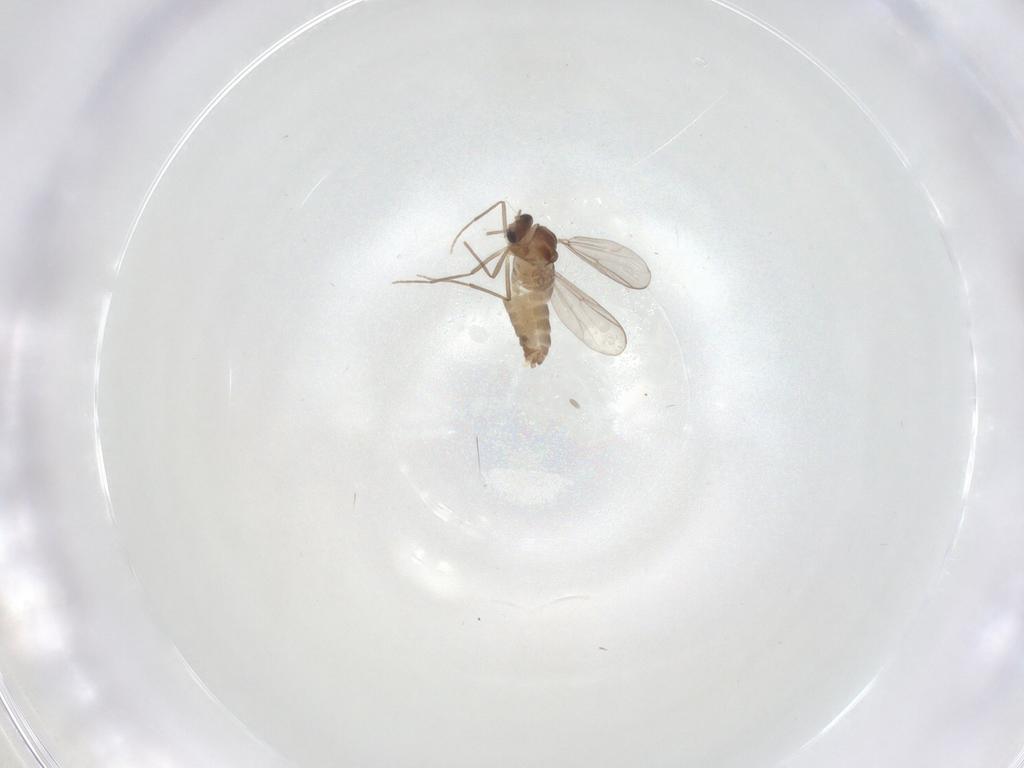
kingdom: Animalia
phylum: Arthropoda
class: Insecta
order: Diptera
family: Chironomidae
